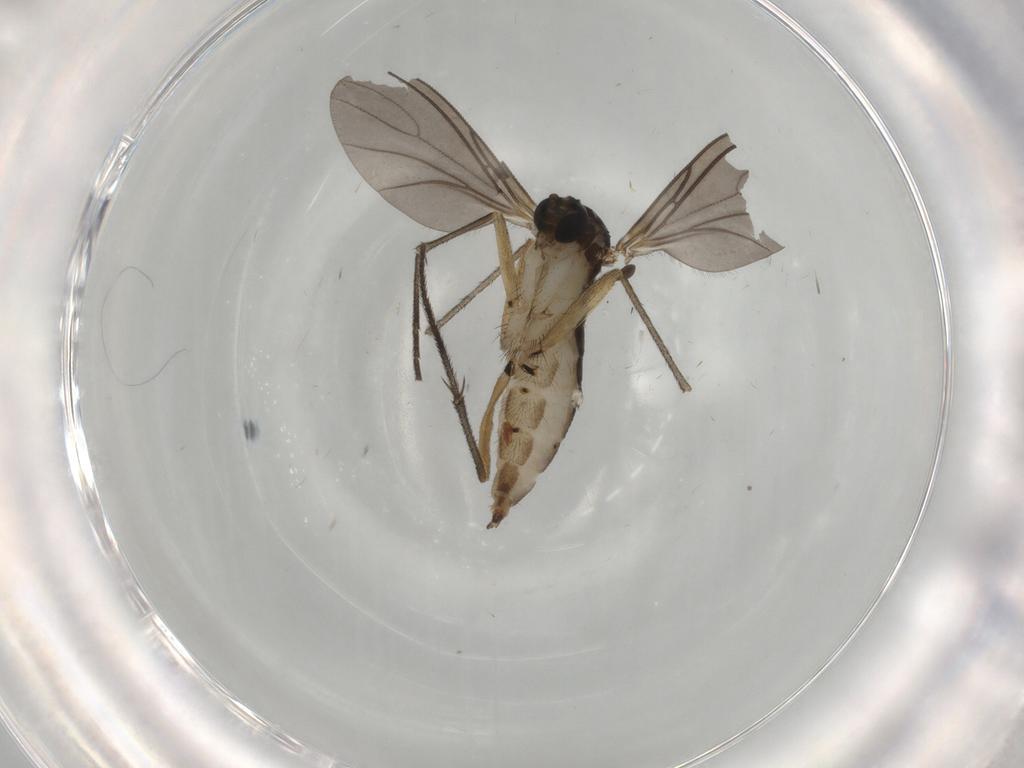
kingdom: Animalia
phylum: Arthropoda
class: Insecta
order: Diptera
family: Sciaridae
